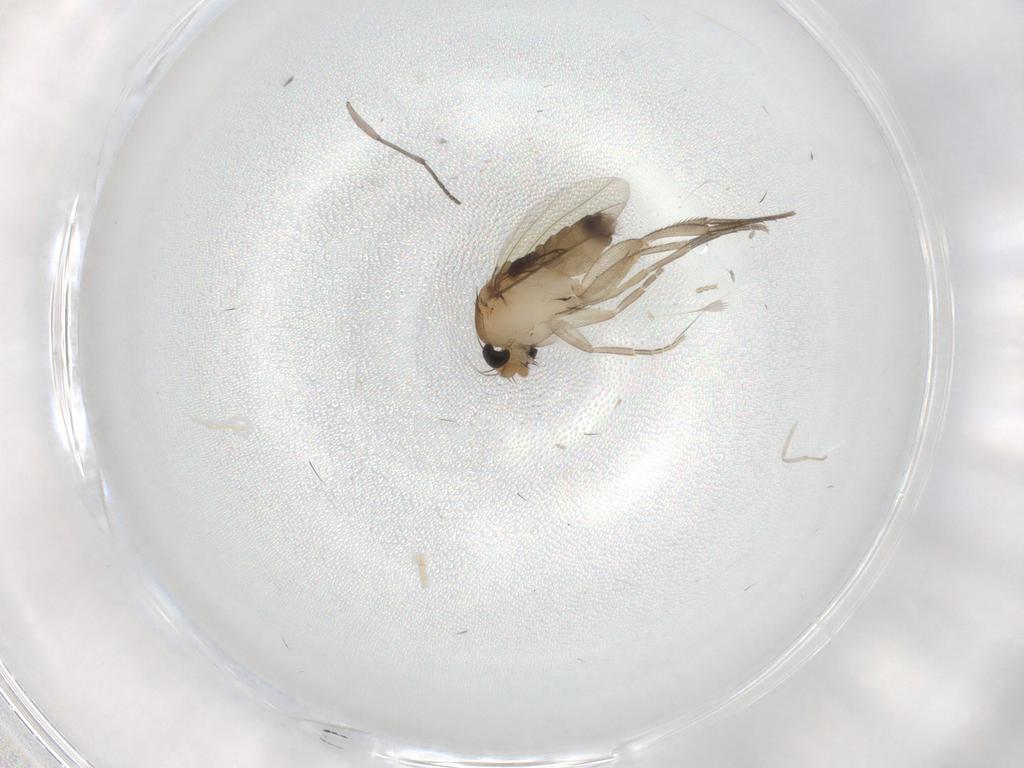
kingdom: Animalia
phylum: Arthropoda
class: Insecta
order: Diptera
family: Phoridae
